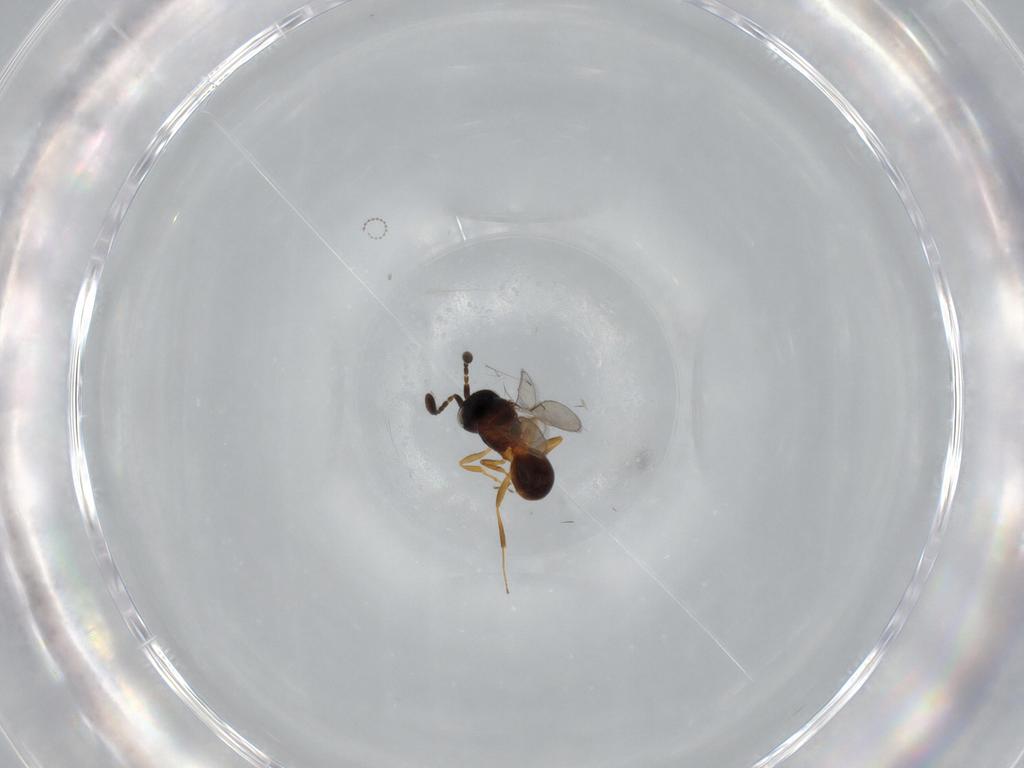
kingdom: Animalia
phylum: Arthropoda
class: Insecta
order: Hymenoptera
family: Scelionidae
